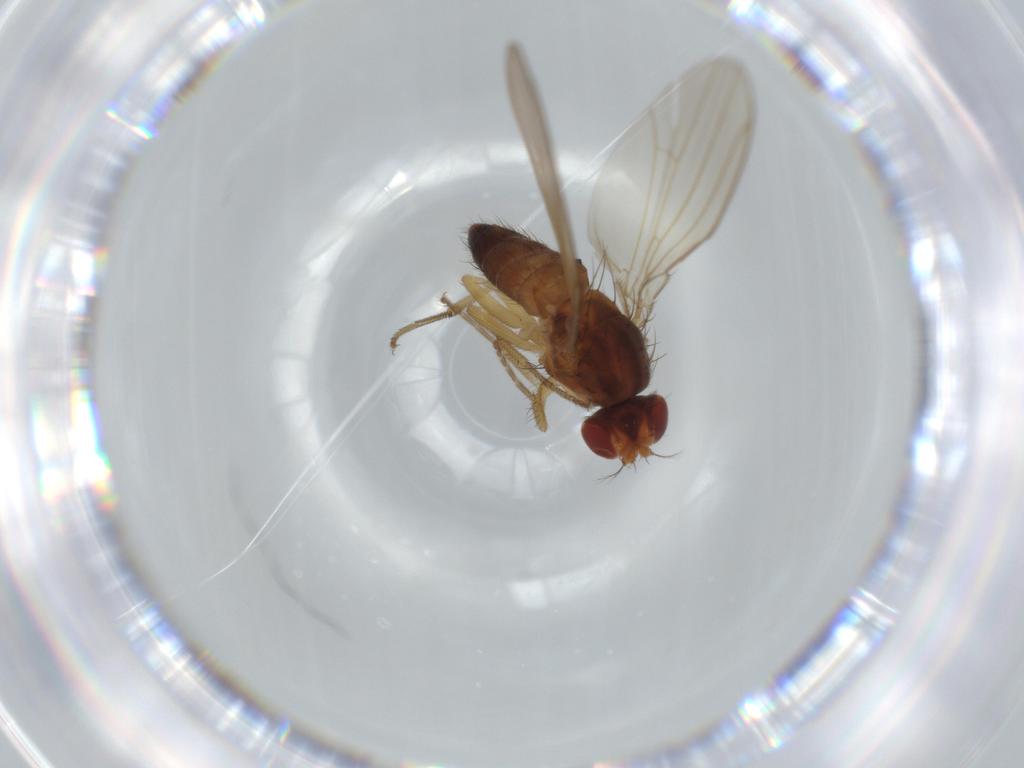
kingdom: Animalia
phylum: Arthropoda
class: Insecta
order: Diptera
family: Drosophilidae
